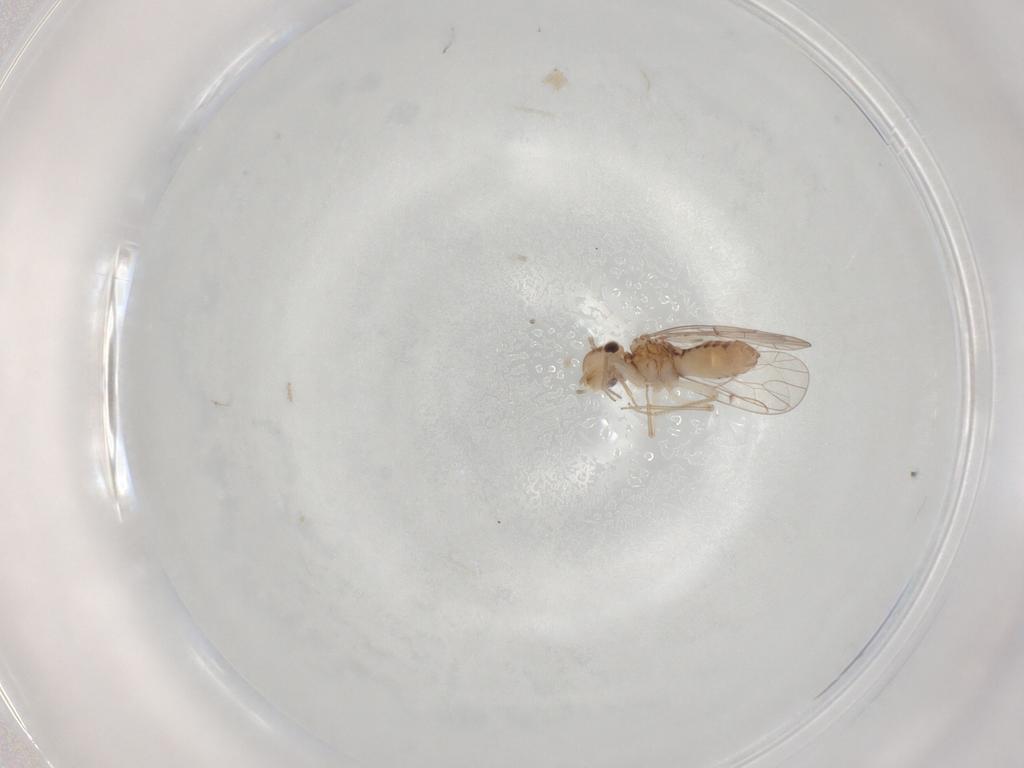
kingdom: Animalia
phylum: Arthropoda
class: Insecta
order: Psocodea
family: Peripsocidae
